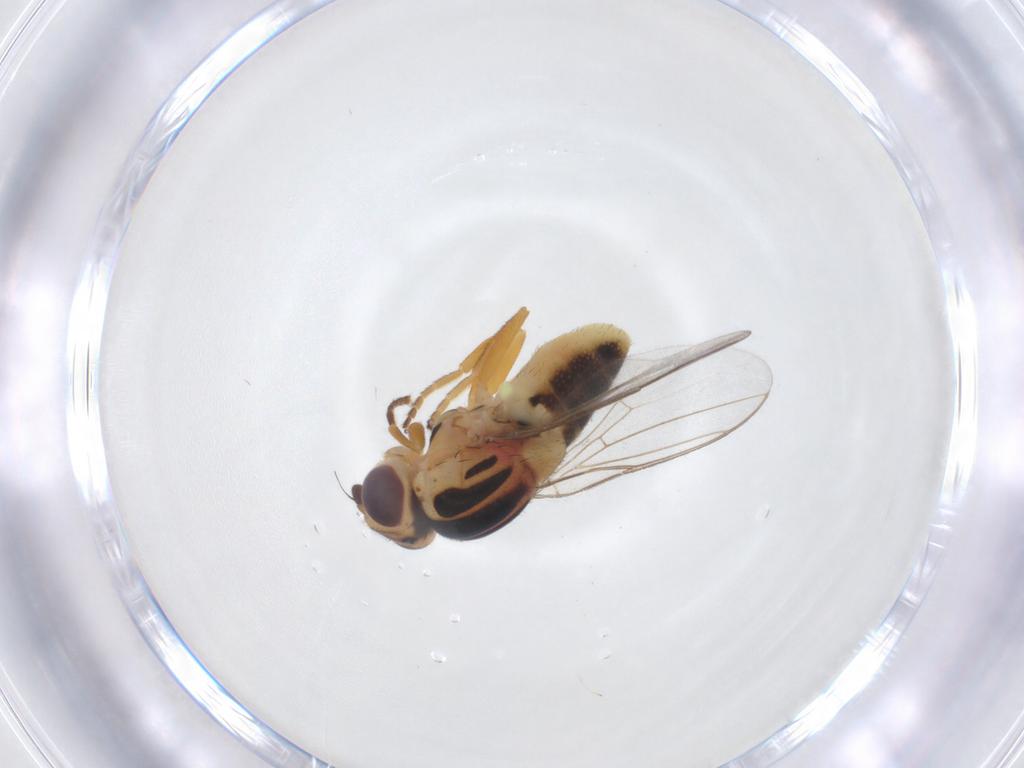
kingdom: Animalia
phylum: Arthropoda
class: Insecta
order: Diptera
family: Chloropidae
